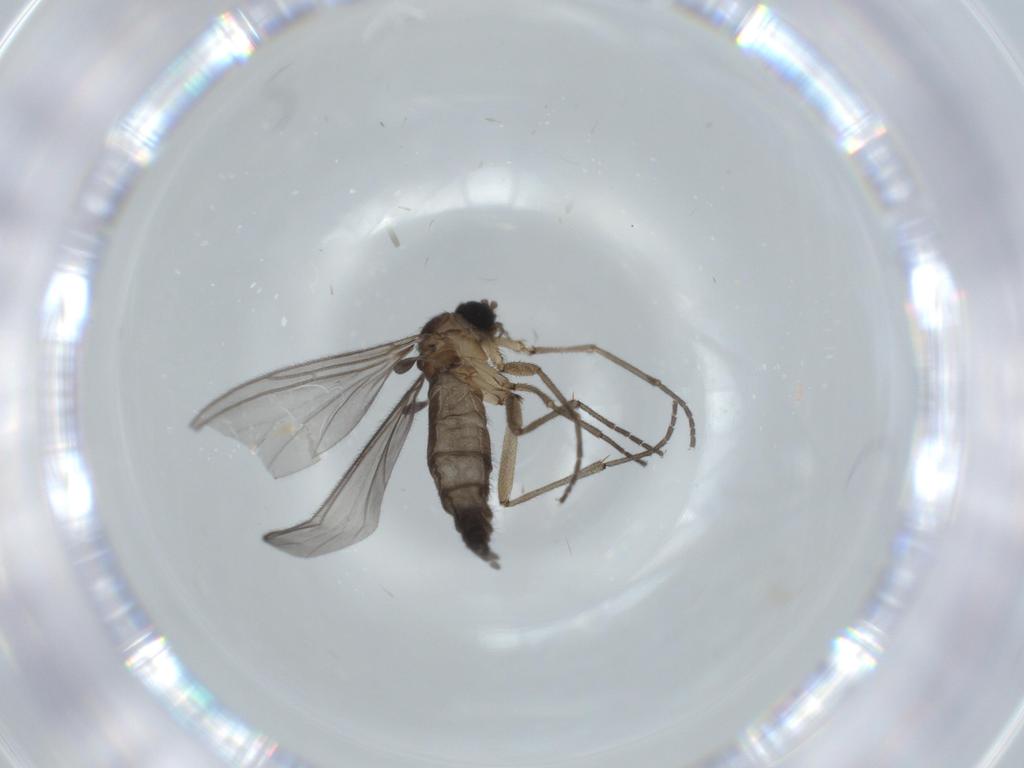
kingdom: Animalia
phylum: Arthropoda
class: Insecta
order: Diptera
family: Sciaridae
